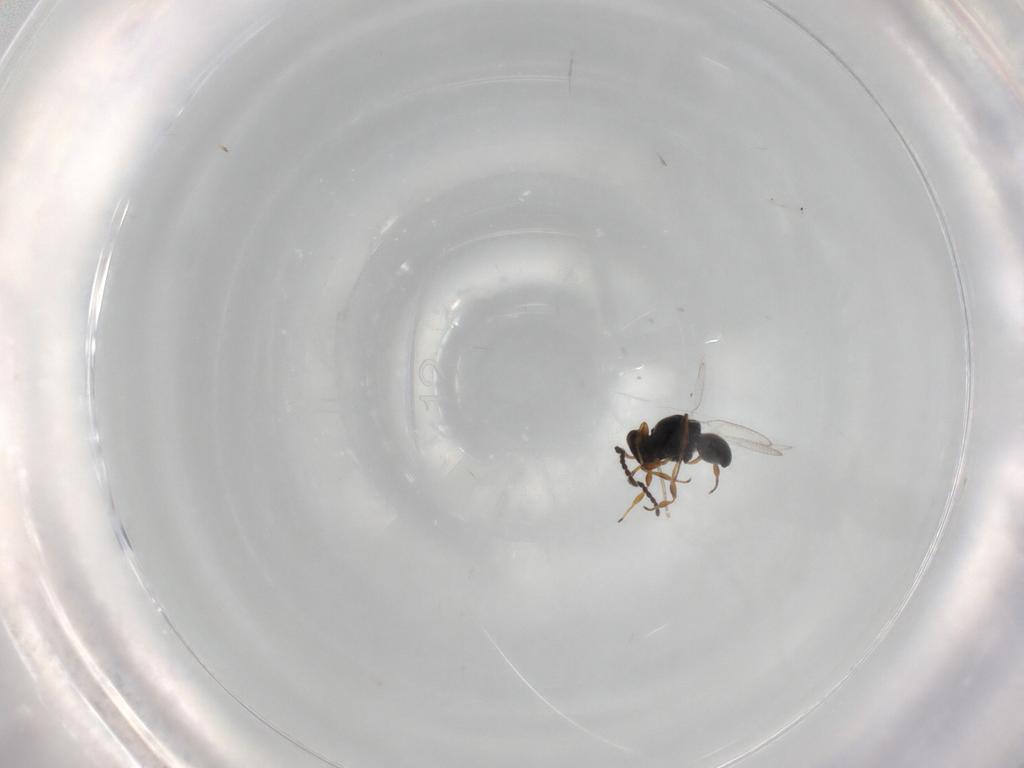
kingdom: Animalia
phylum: Arthropoda
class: Insecta
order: Hymenoptera
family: Platygastridae
